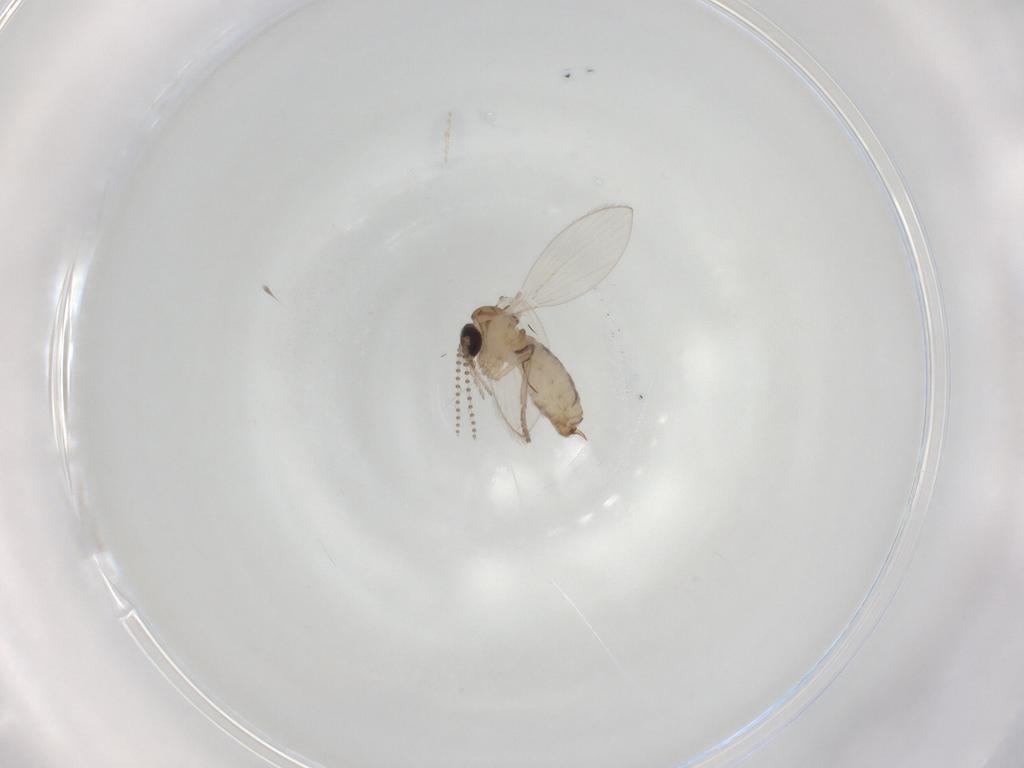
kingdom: Animalia
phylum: Arthropoda
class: Insecta
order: Diptera
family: Psychodidae
